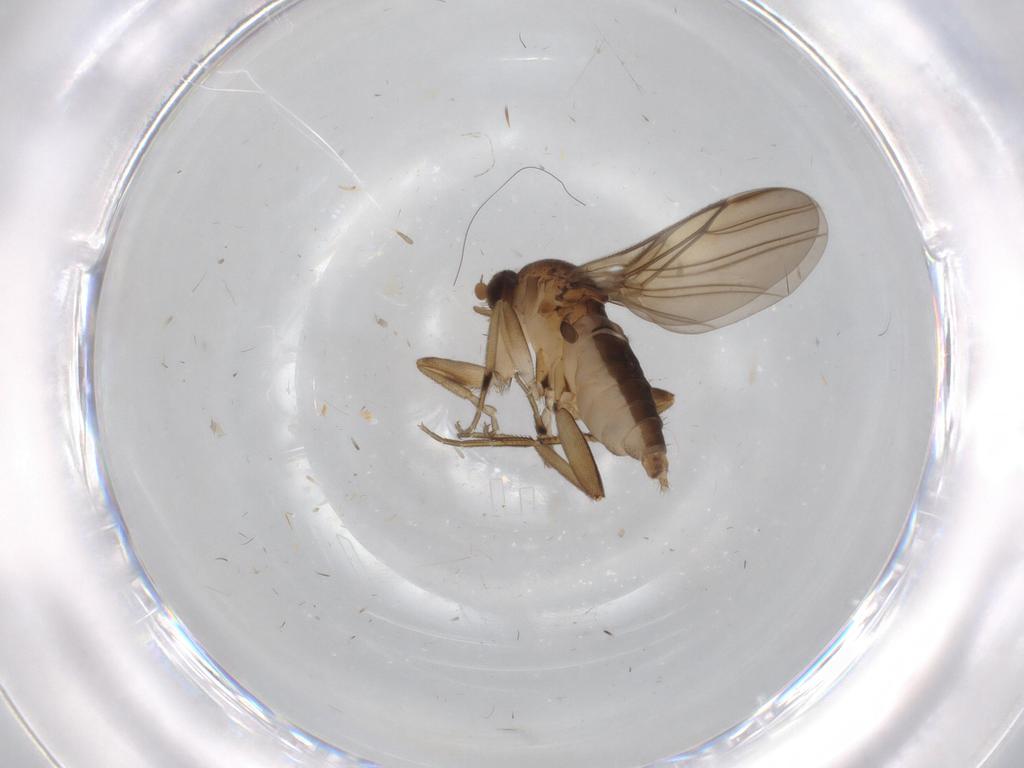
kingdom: Animalia
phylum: Arthropoda
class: Insecta
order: Diptera
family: Phoridae
